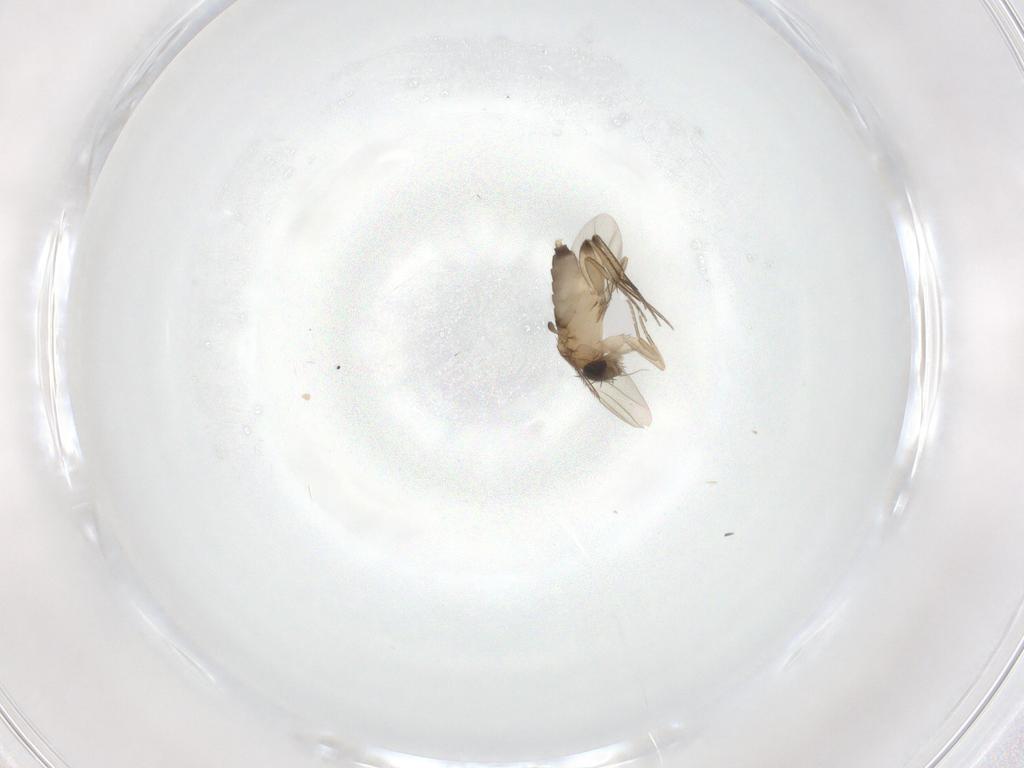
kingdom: Animalia
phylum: Arthropoda
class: Insecta
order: Diptera
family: Phoridae
